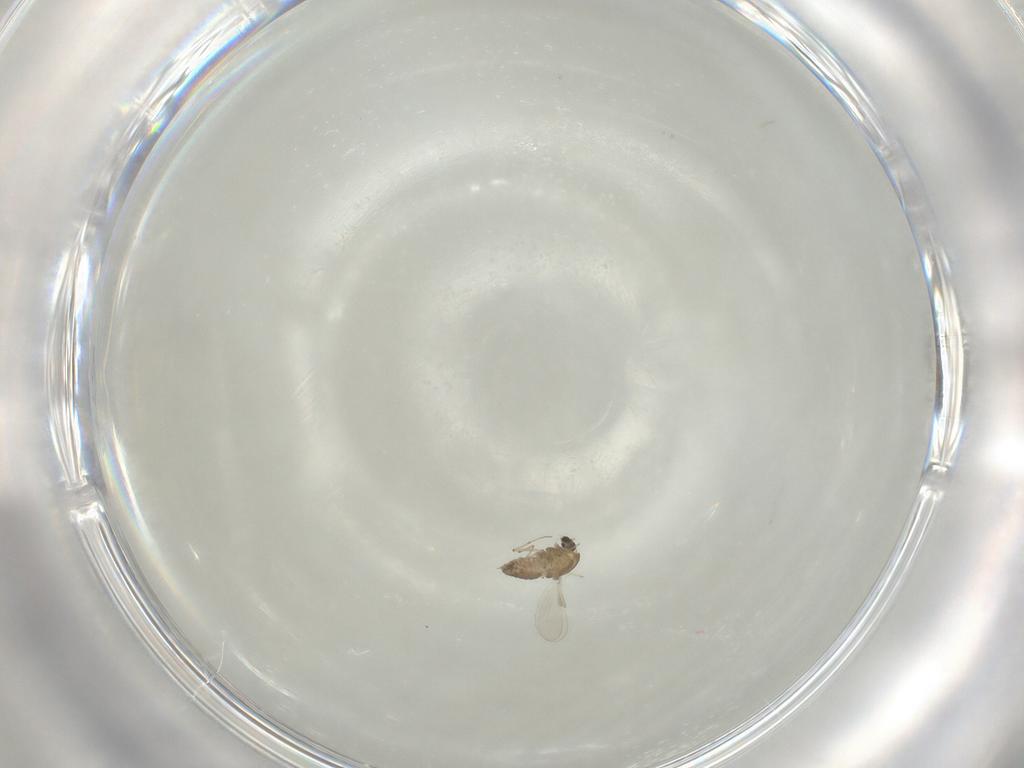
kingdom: Animalia
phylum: Arthropoda
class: Insecta
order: Diptera
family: Chironomidae
